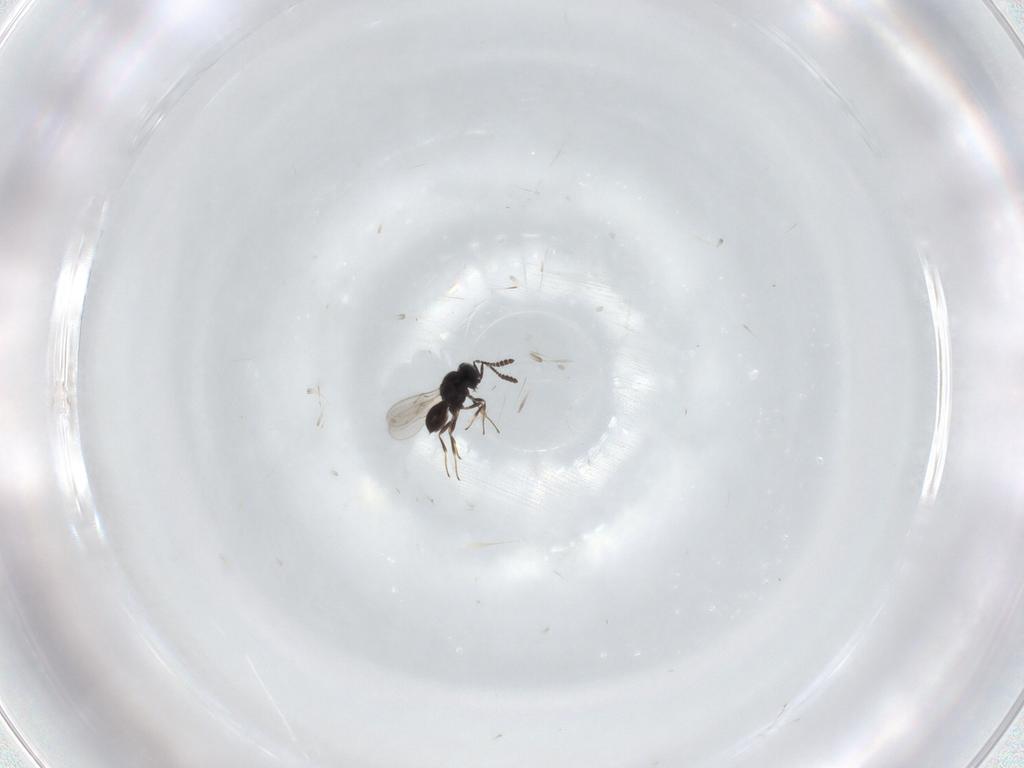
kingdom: Animalia
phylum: Arthropoda
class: Insecta
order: Hymenoptera
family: Scelionidae
